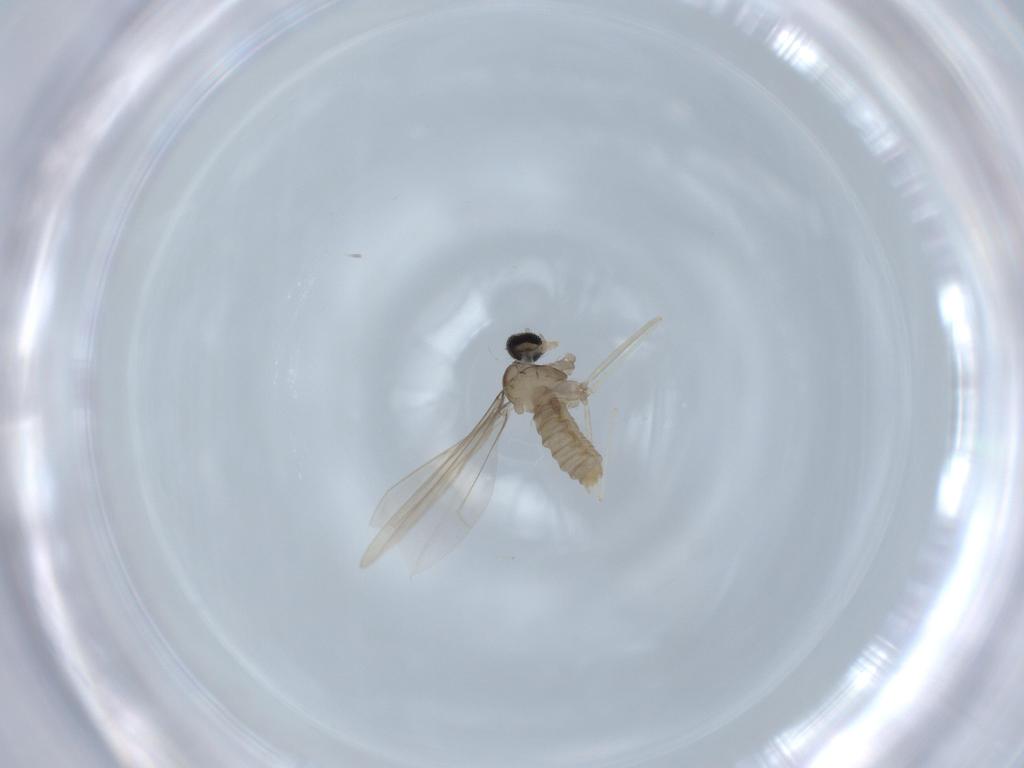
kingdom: Animalia
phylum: Arthropoda
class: Insecta
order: Diptera
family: Cecidomyiidae
